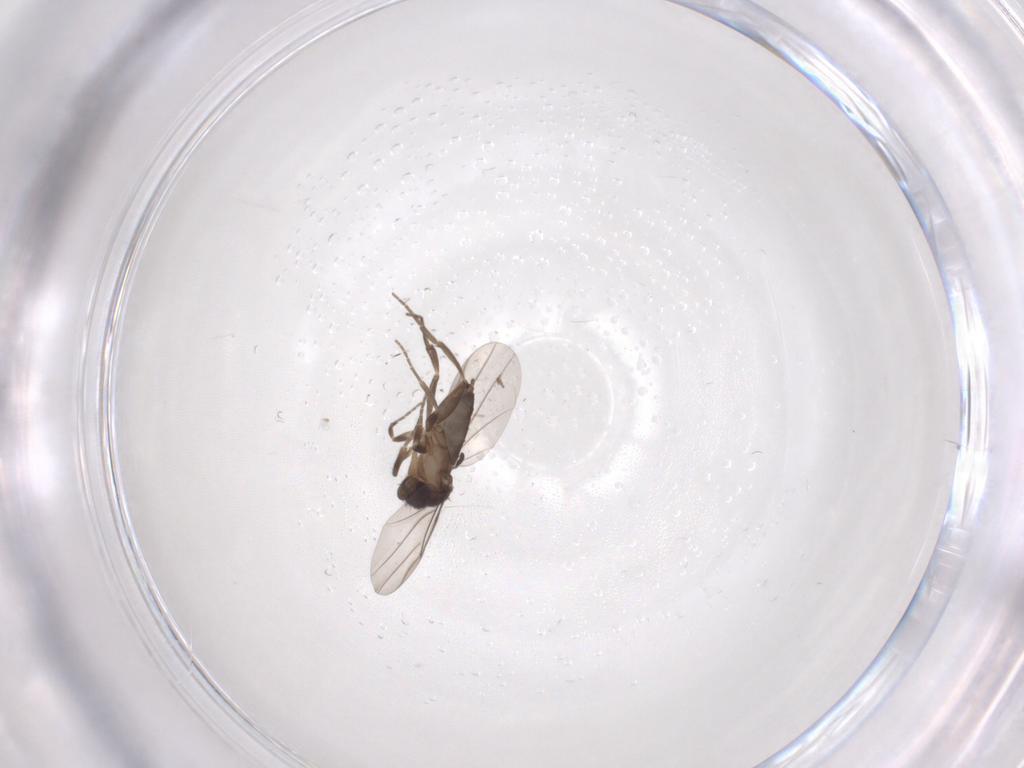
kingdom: Animalia
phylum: Arthropoda
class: Insecta
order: Diptera
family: Phoridae
